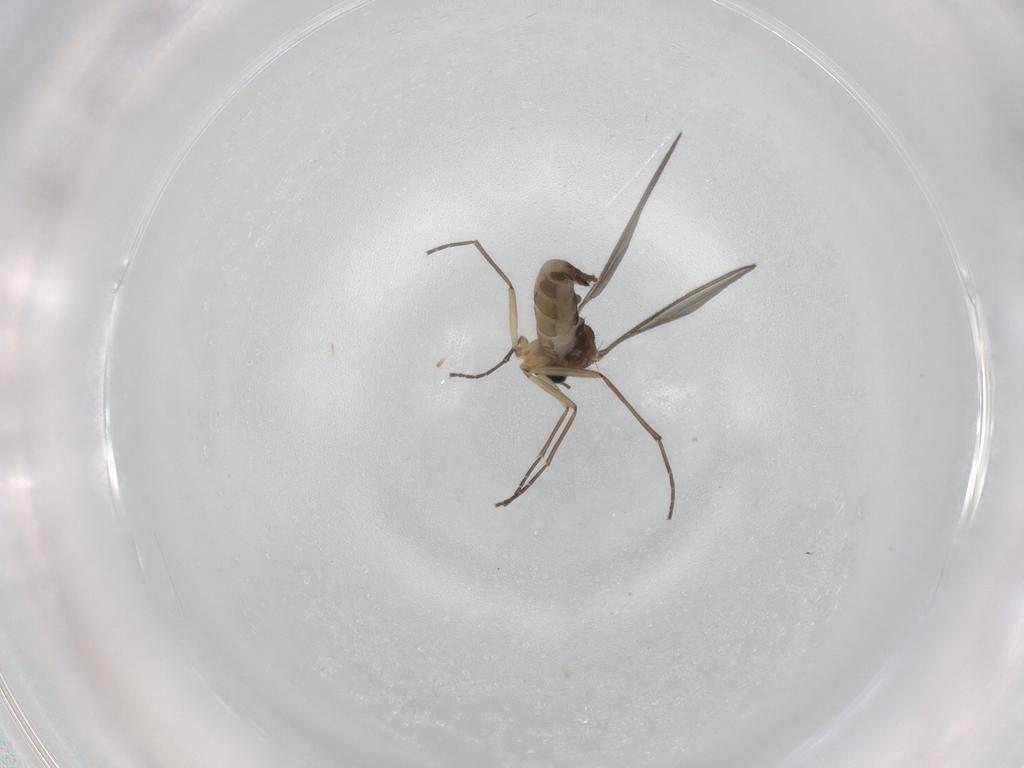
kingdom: Animalia
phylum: Arthropoda
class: Insecta
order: Diptera
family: Sciaridae
